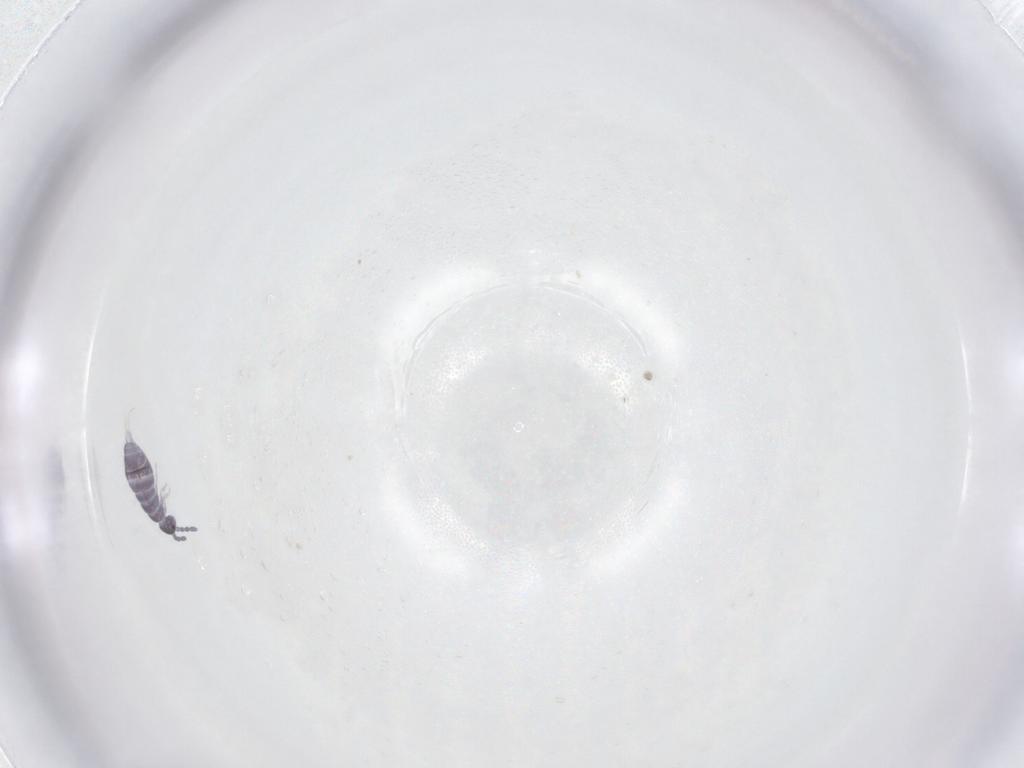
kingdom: Animalia
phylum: Arthropoda
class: Collembola
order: Entomobryomorpha
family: Isotomidae
